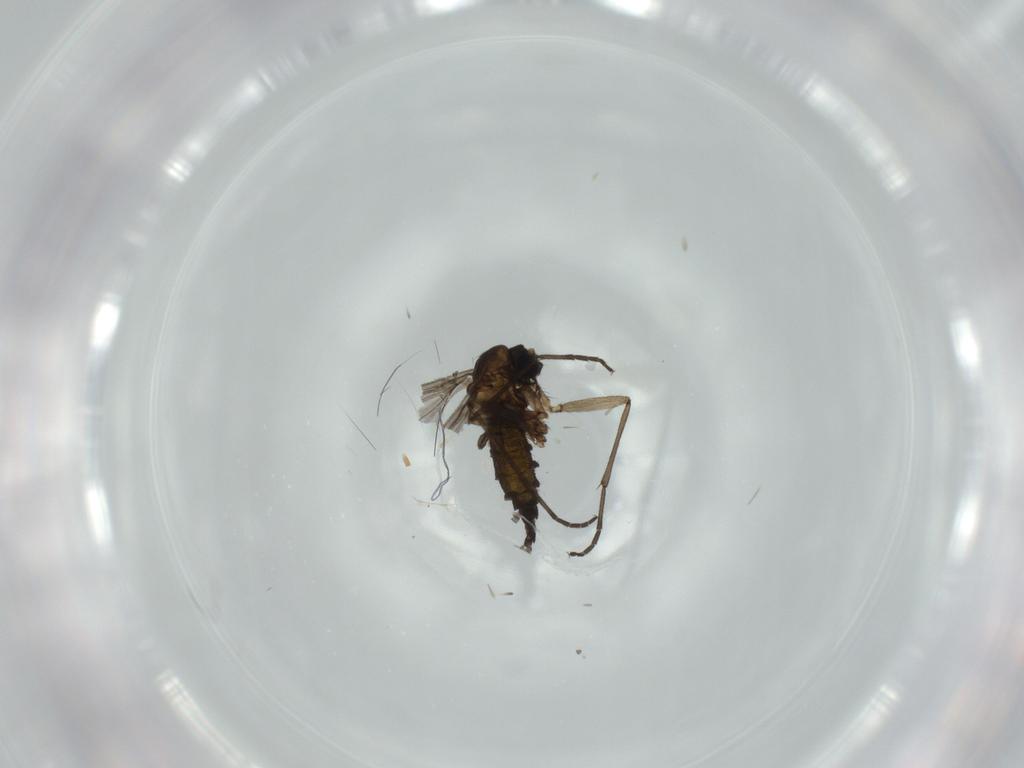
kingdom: Animalia
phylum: Arthropoda
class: Insecta
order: Diptera
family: Sciaridae
